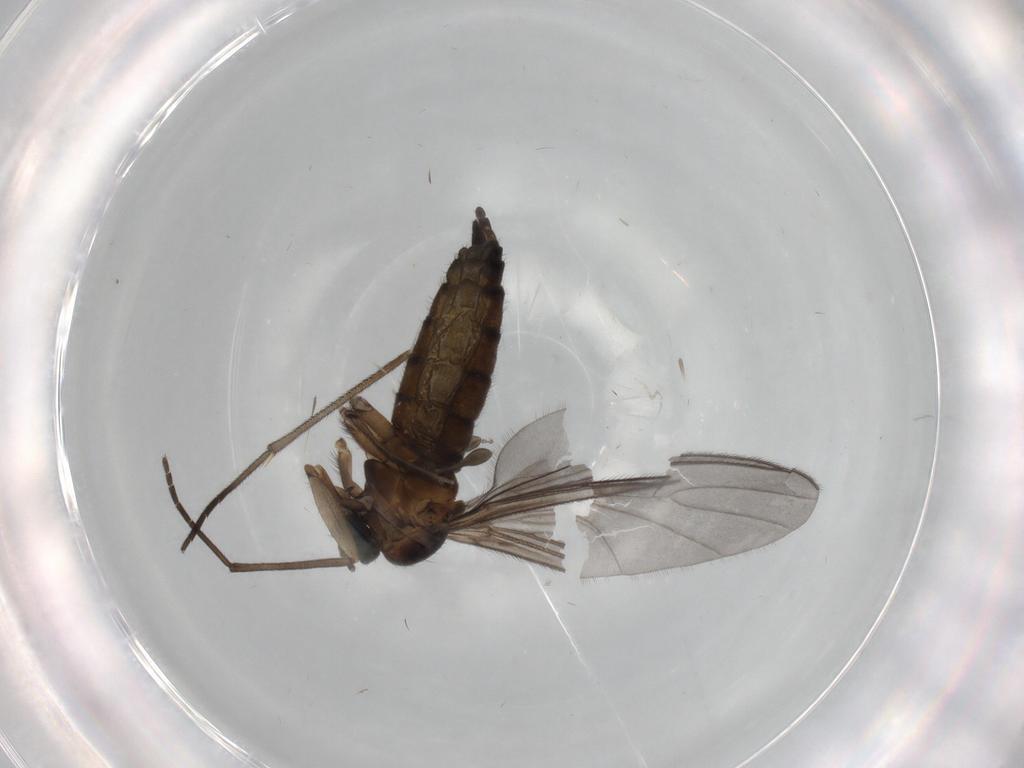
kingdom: Animalia
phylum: Arthropoda
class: Insecta
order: Diptera
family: Sciaridae
